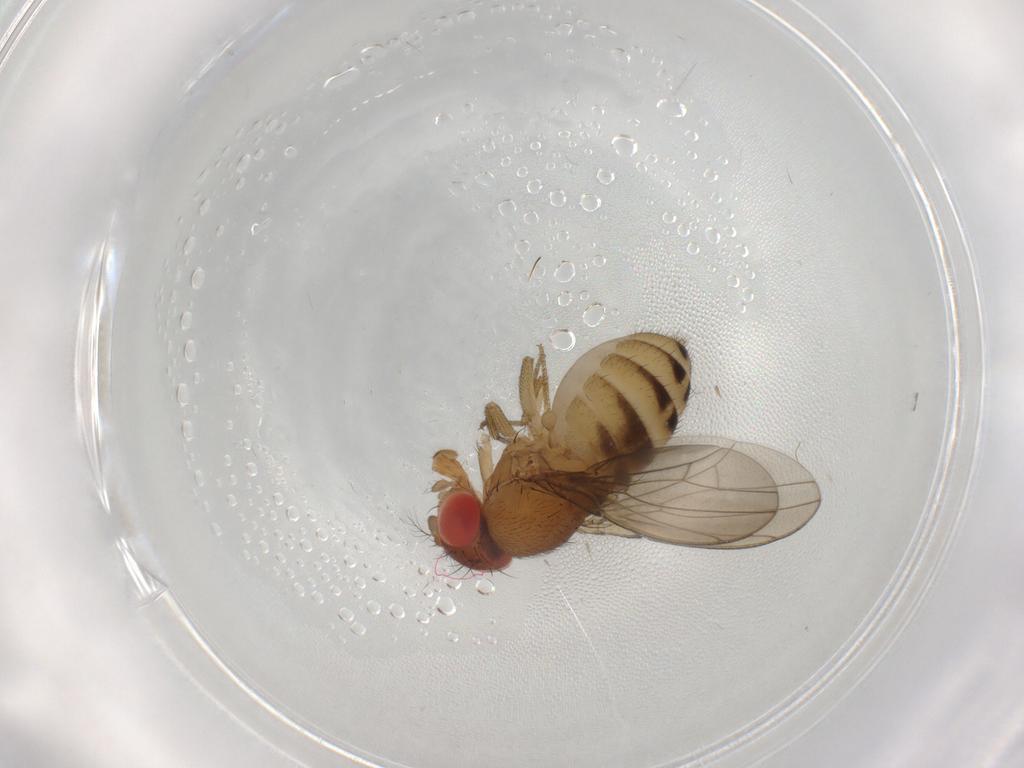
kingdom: Animalia
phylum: Arthropoda
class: Insecta
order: Diptera
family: Drosophilidae
